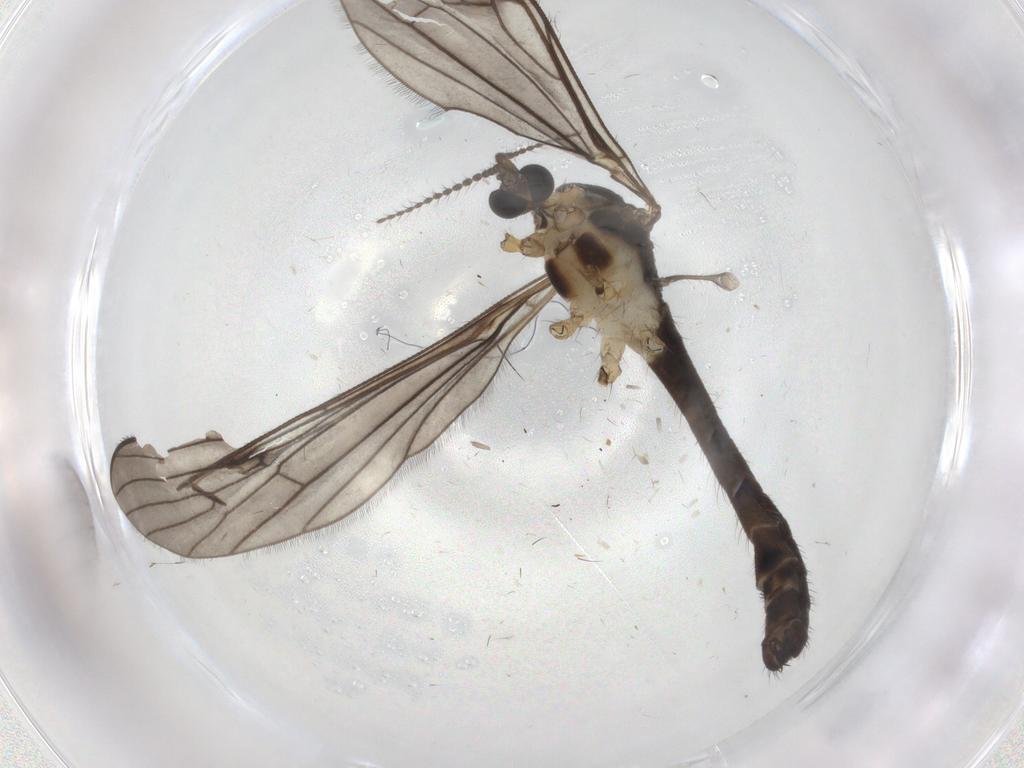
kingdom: Animalia
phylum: Arthropoda
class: Insecta
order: Diptera
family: Limoniidae
